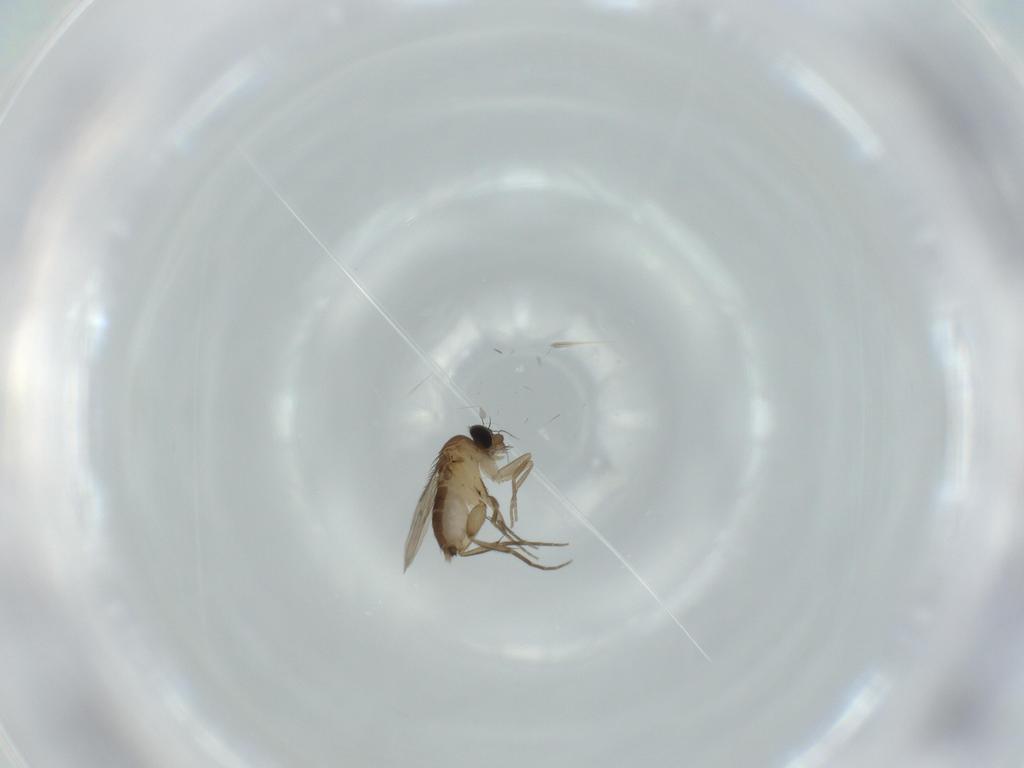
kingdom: Animalia
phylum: Arthropoda
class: Insecta
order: Diptera
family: Phoridae
